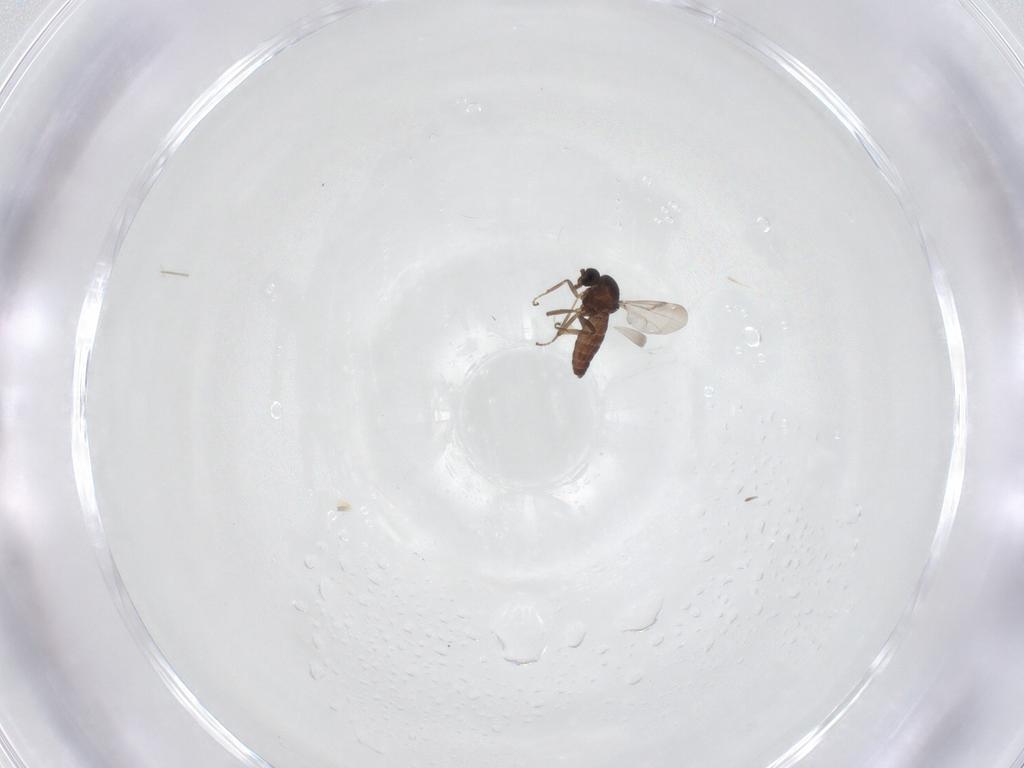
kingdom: Animalia
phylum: Arthropoda
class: Insecta
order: Diptera
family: Ceratopogonidae
